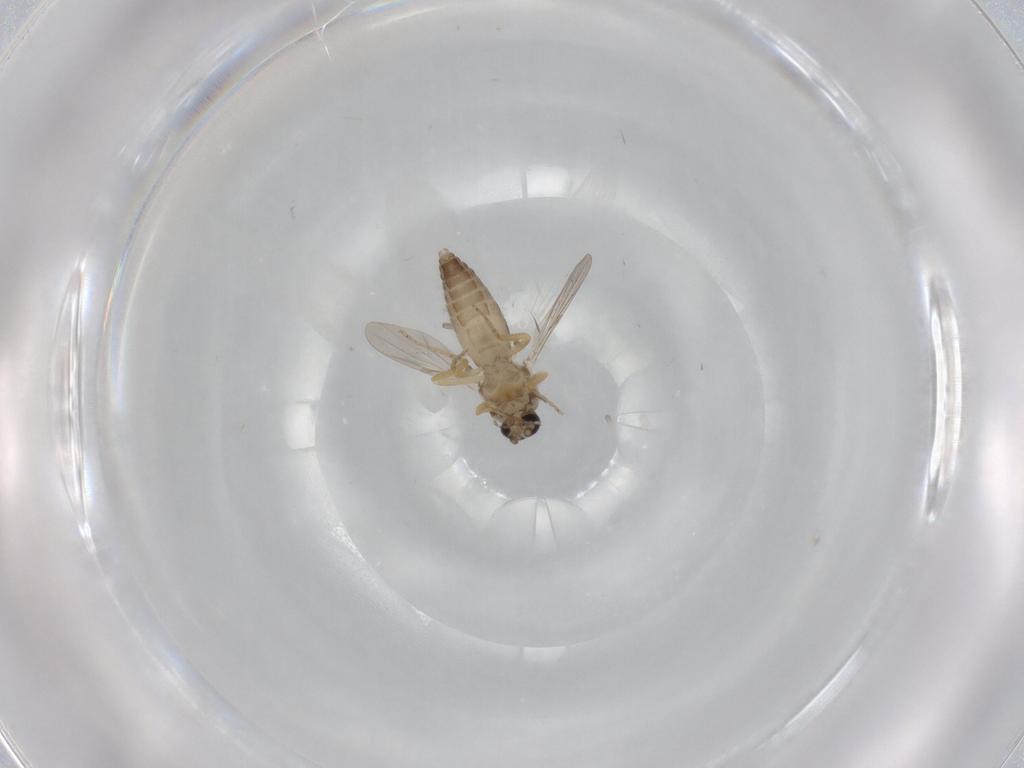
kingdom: Animalia
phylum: Arthropoda
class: Insecta
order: Diptera
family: Ceratopogonidae
